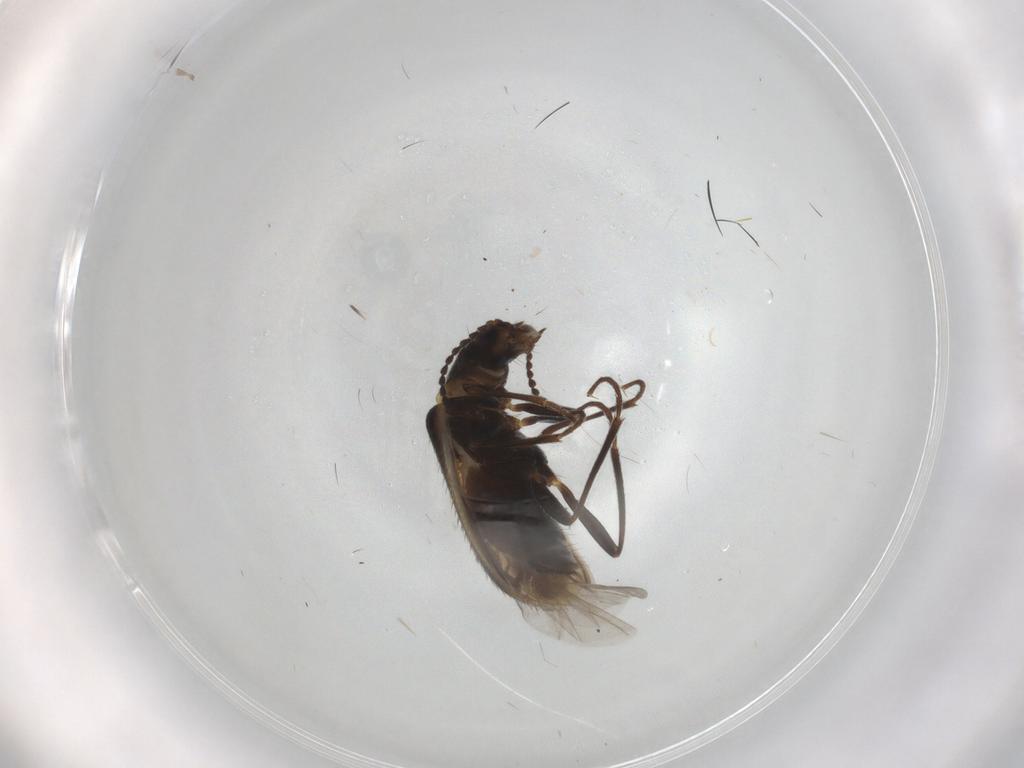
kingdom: Animalia
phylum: Arthropoda
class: Insecta
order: Coleoptera
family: Melyridae
